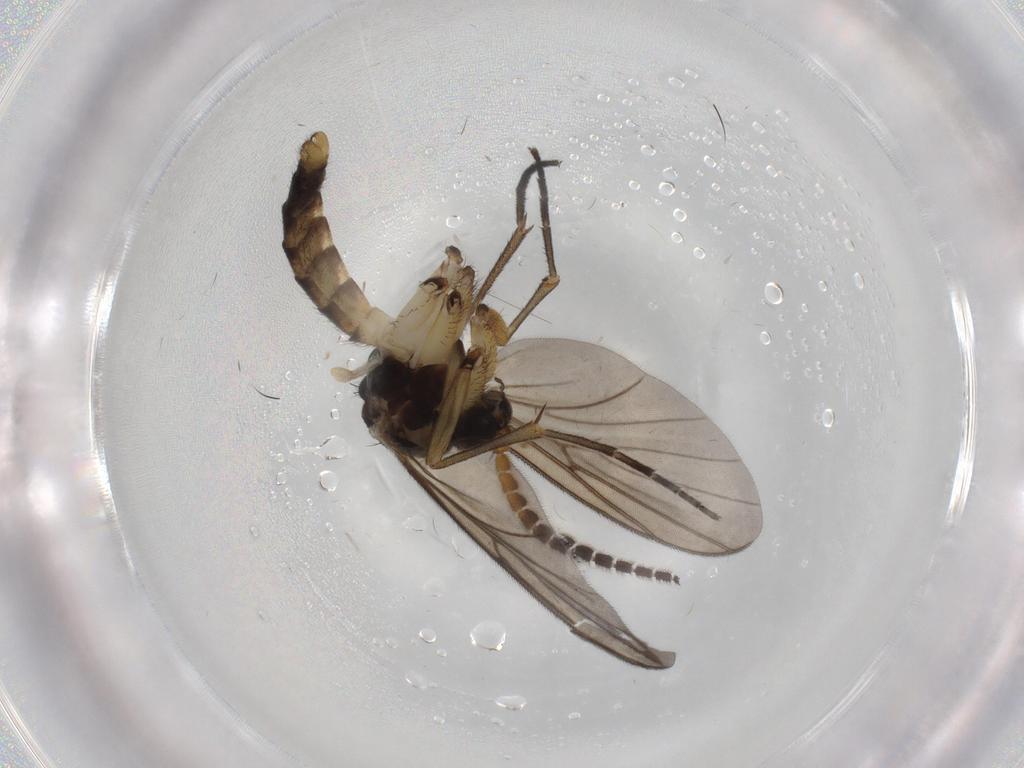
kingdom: Animalia
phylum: Arthropoda
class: Insecta
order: Diptera
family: Mycetophilidae
